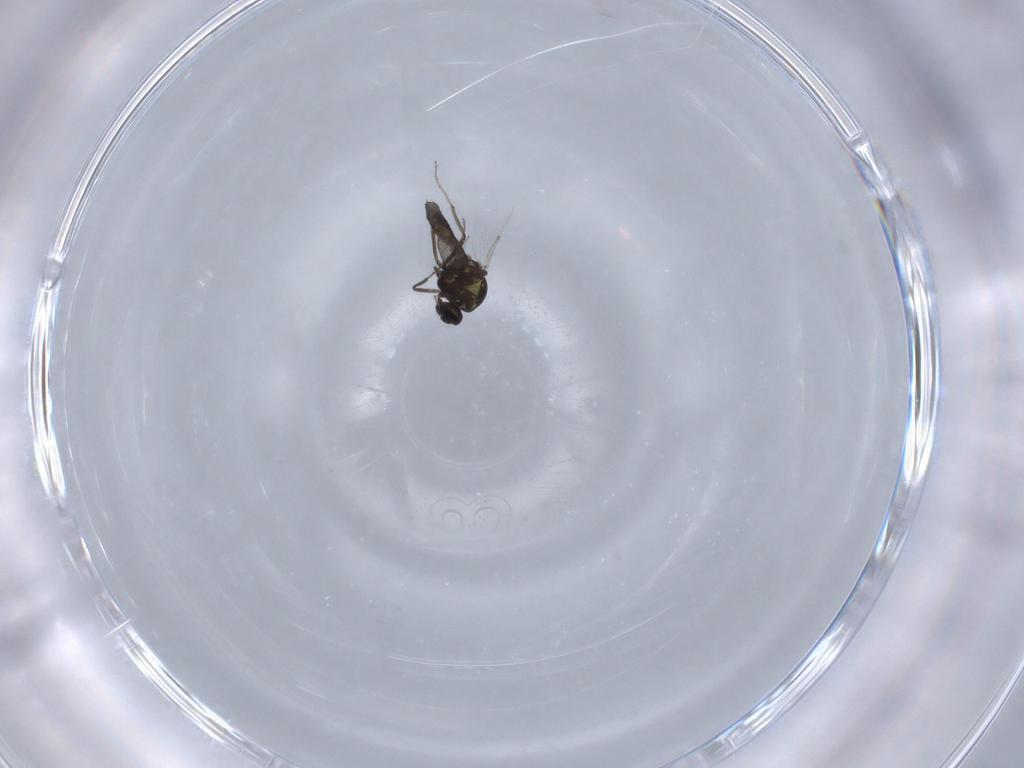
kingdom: Animalia
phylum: Arthropoda
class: Insecta
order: Diptera
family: Ceratopogonidae
